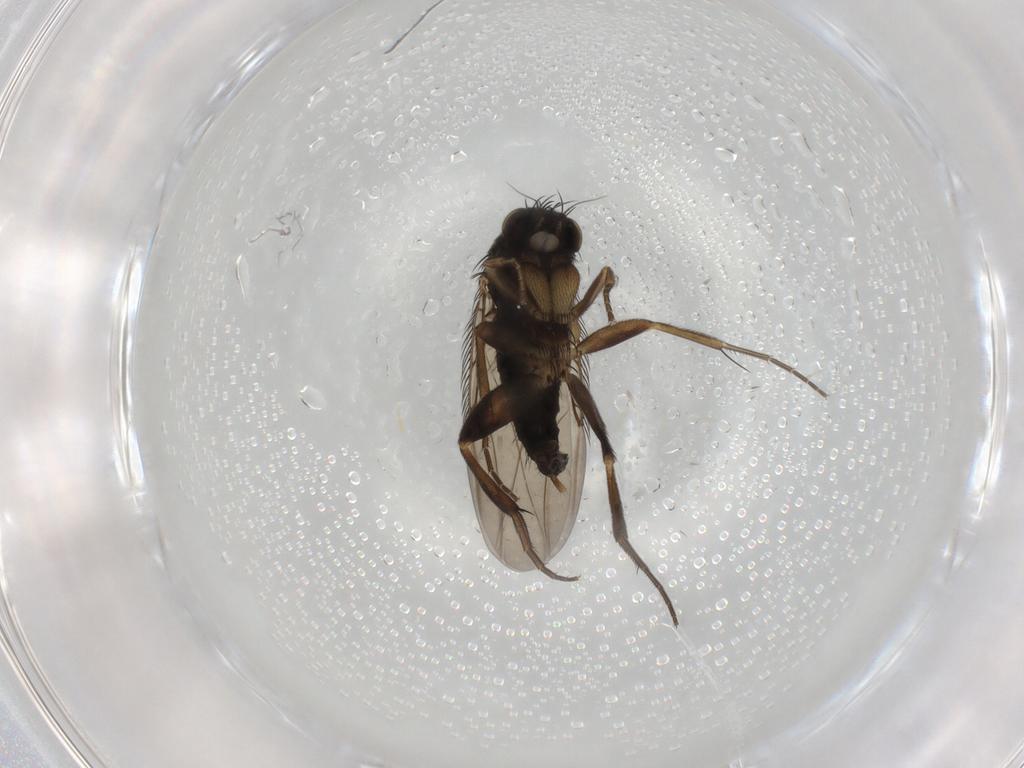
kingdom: Animalia
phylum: Arthropoda
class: Insecta
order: Diptera
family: Phoridae
